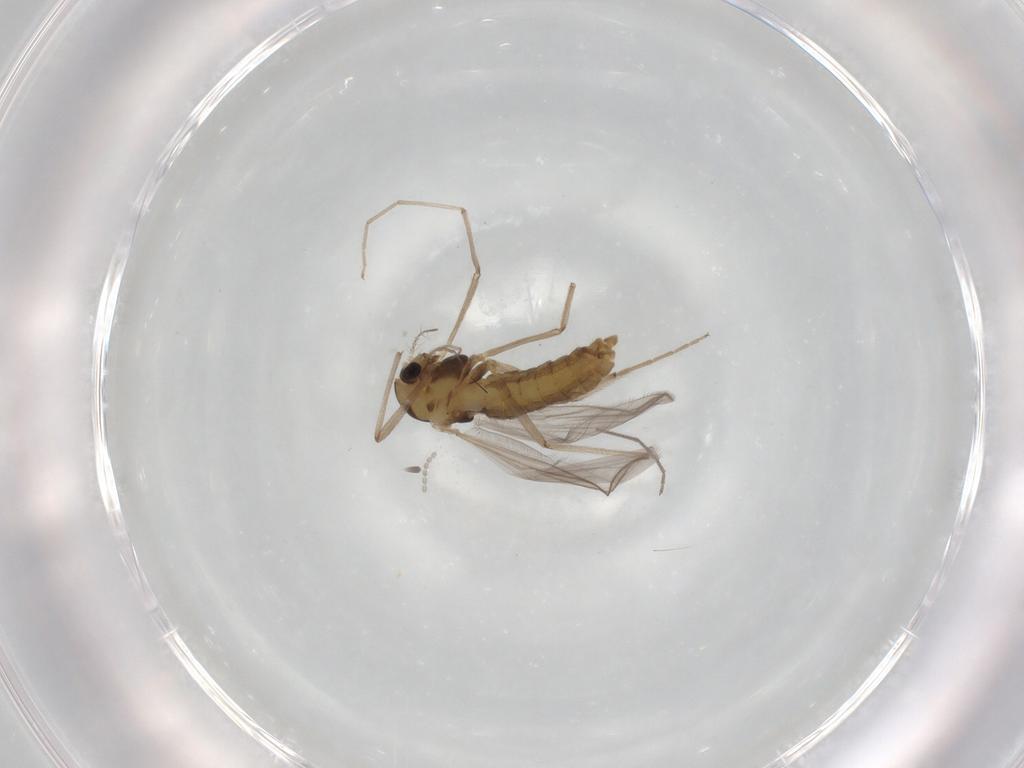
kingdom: Animalia
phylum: Arthropoda
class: Insecta
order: Diptera
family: Chironomidae
